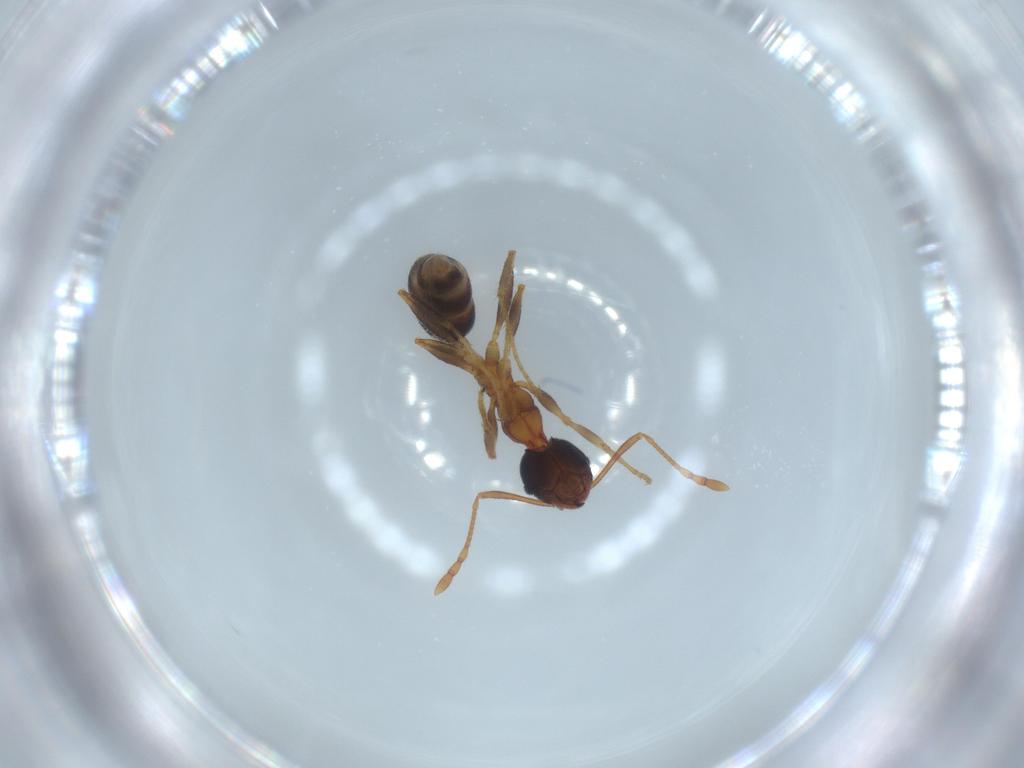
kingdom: Animalia
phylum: Arthropoda
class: Insecta
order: Hymenoptera
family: Formicidae
